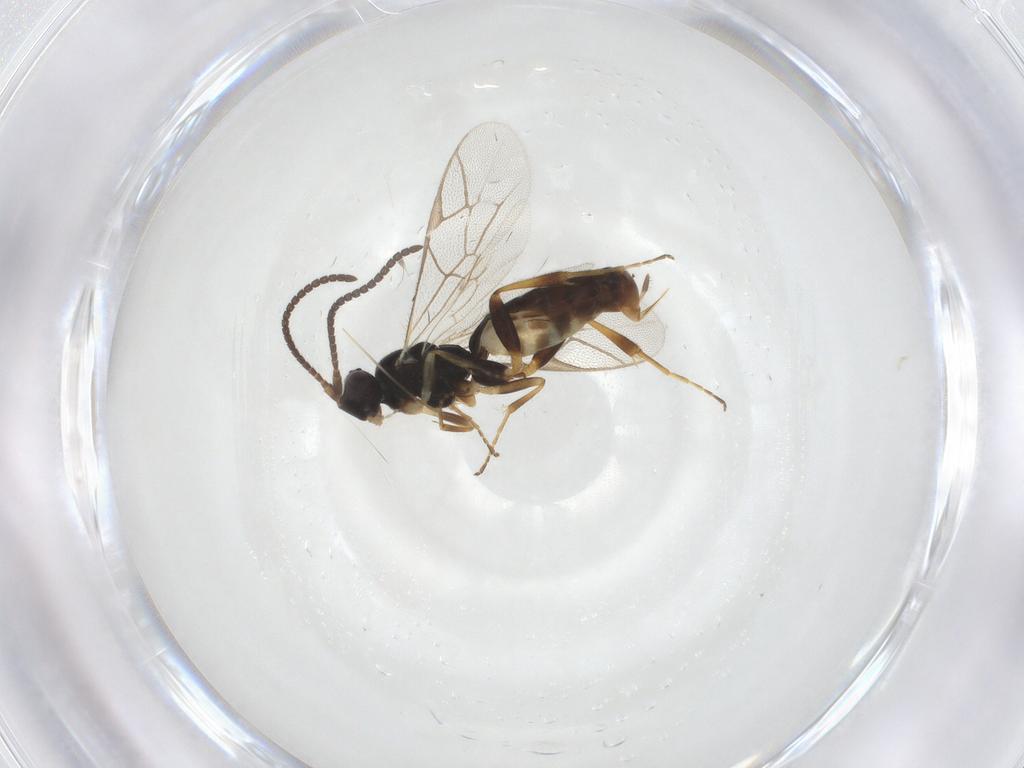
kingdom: Animalia
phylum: Arthropoda
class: Insecta
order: Hymenoptera
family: Ichneumonidae
